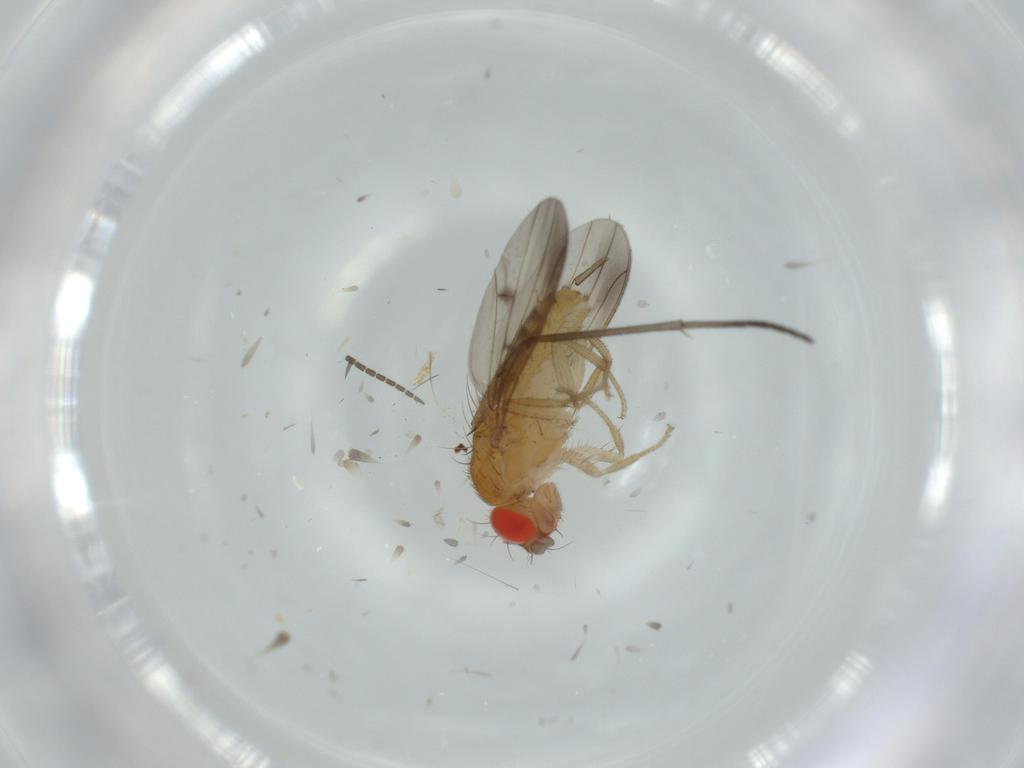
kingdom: Animalia
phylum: Arthropoda
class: Insecta
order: Diptera
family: Drosophilidae
